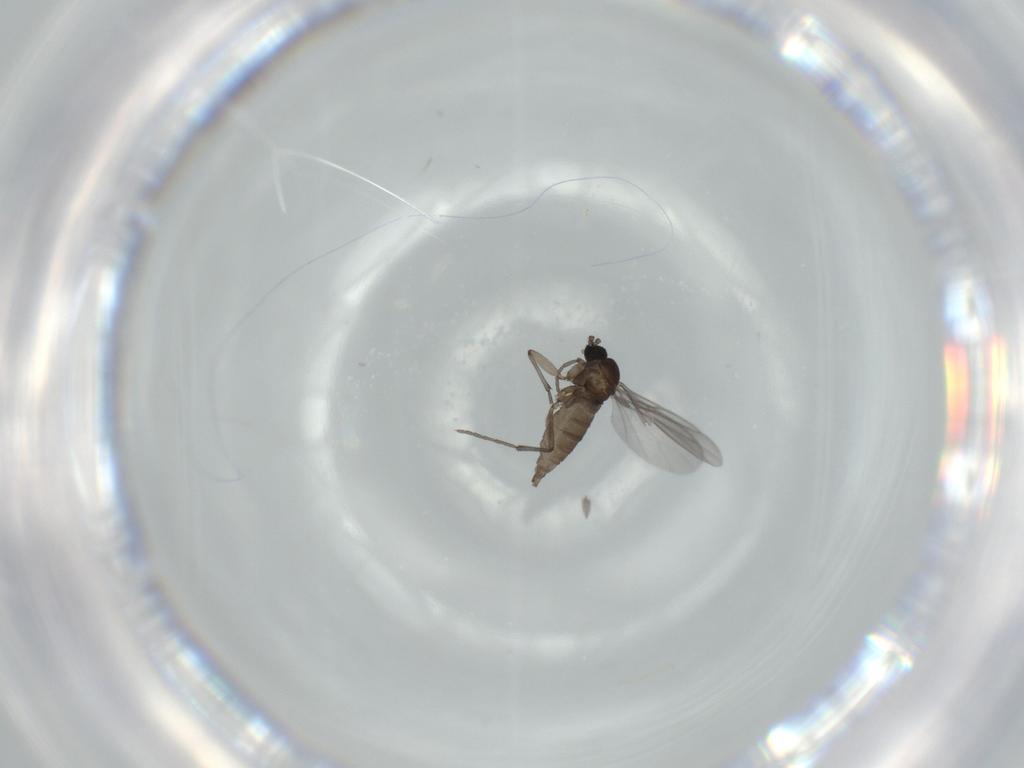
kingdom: Animalia
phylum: Arthropoda
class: Insecta
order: Diptera
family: Sciaridae
